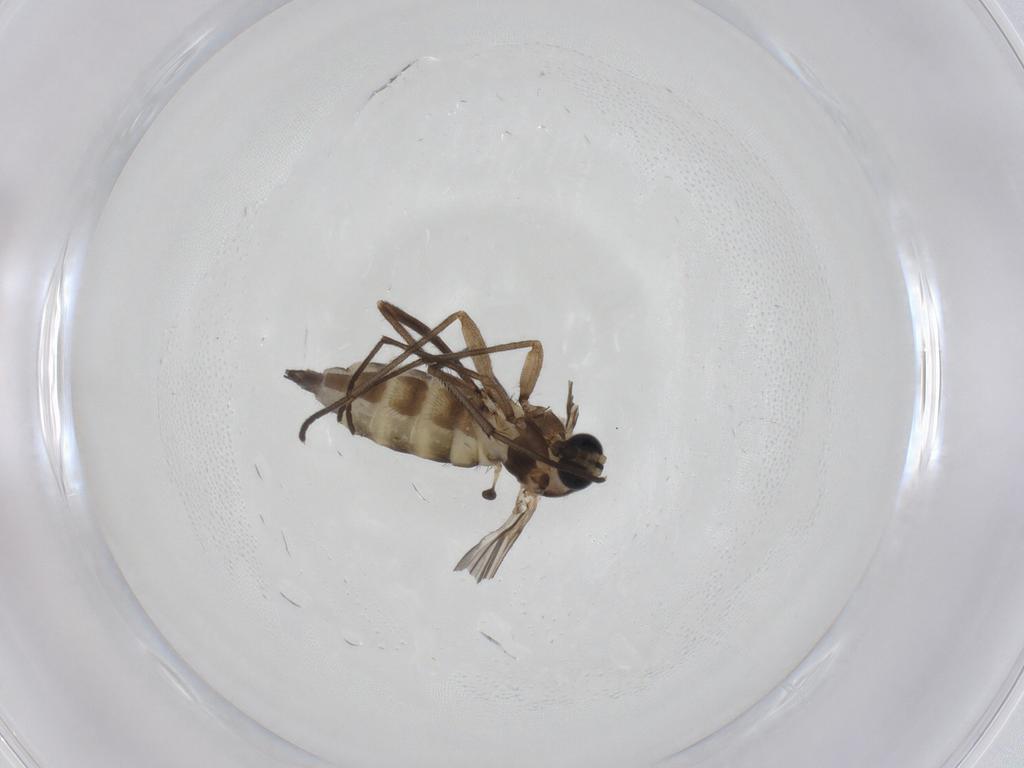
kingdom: Animalia
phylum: Arthropoda
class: Insecta
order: Diptera
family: Sciaridae
